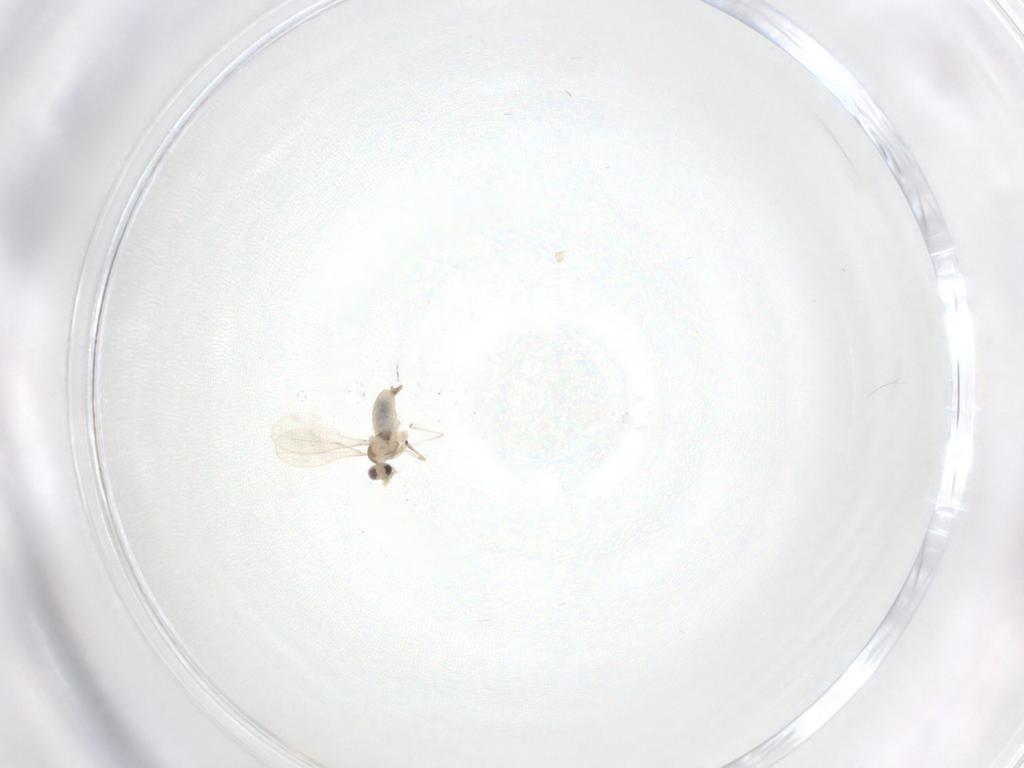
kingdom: Animalia
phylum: Arthropoda
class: Insecta
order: Diptera
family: Cecidomyiidae
